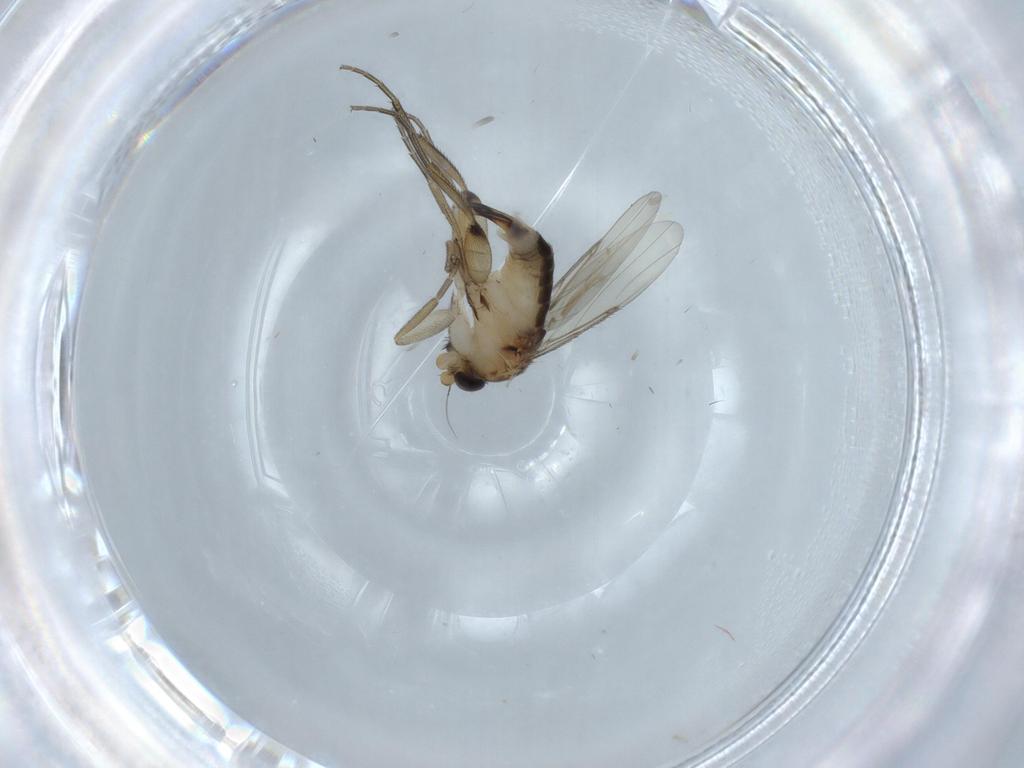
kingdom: Animalia
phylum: Arthropoda
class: Insecta
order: Diptera
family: Phoridae
